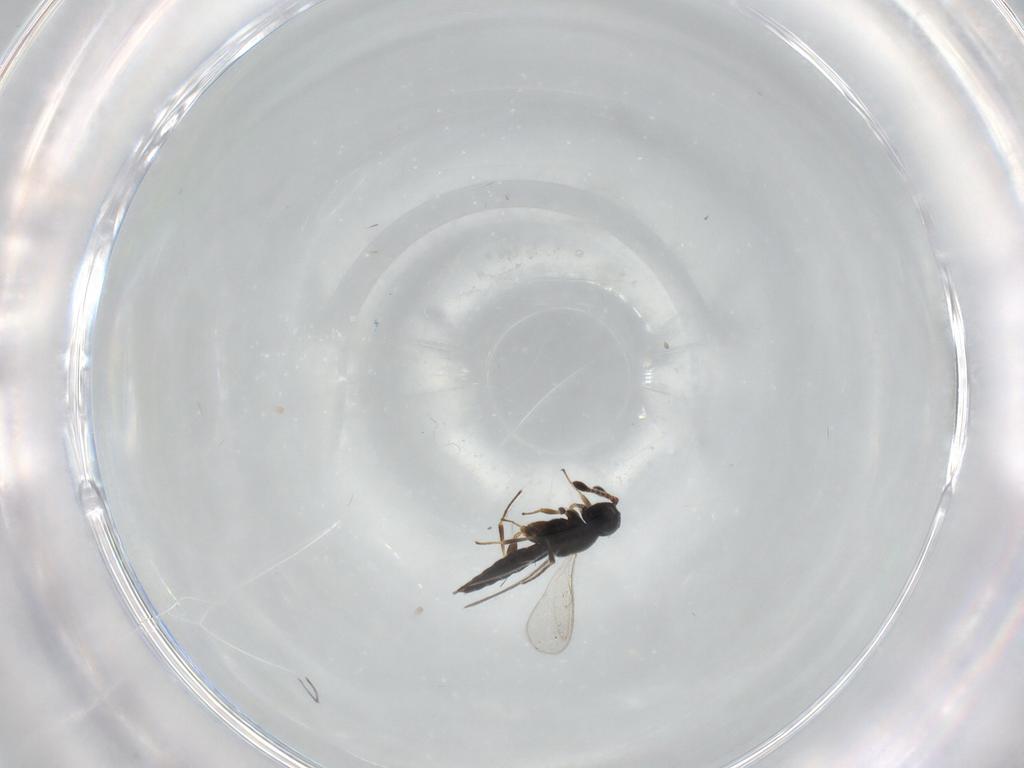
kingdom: Animalia
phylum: Arthropoda
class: Insecta
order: Hymenoptera
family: Scelionidae
